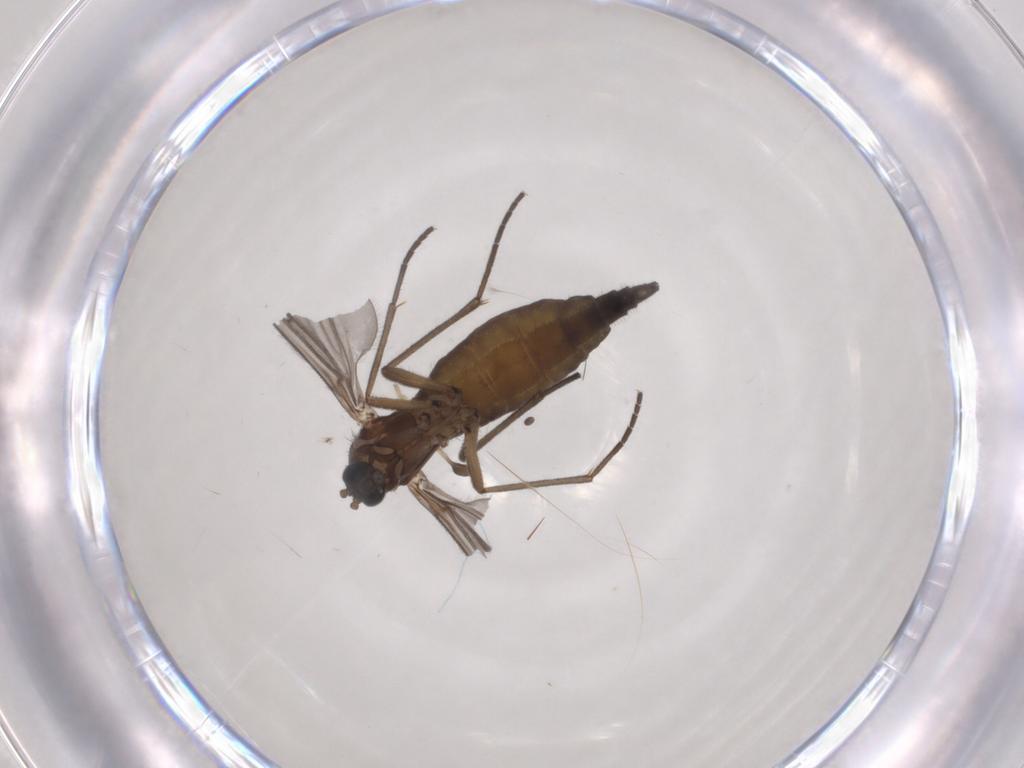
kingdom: Animalia
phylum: Arthropoda
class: Insecta
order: Diptera
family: Sciaridae
